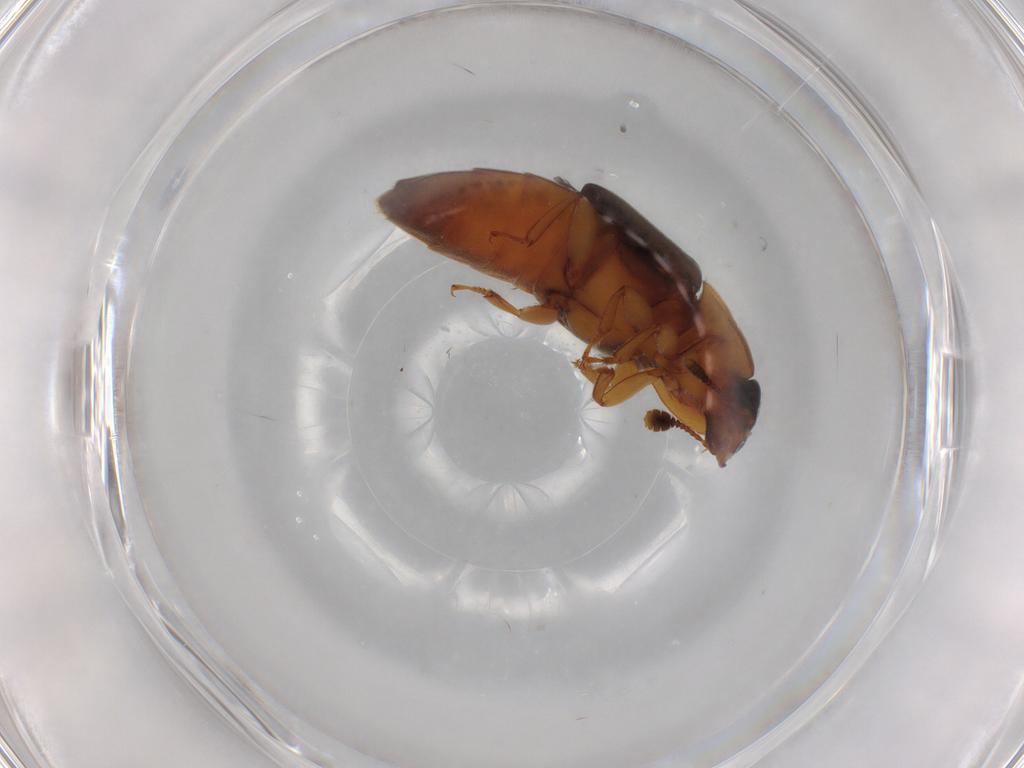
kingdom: Animalia
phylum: Arthropoda
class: Insecta
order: Coleoptera
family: Nitidulidae
